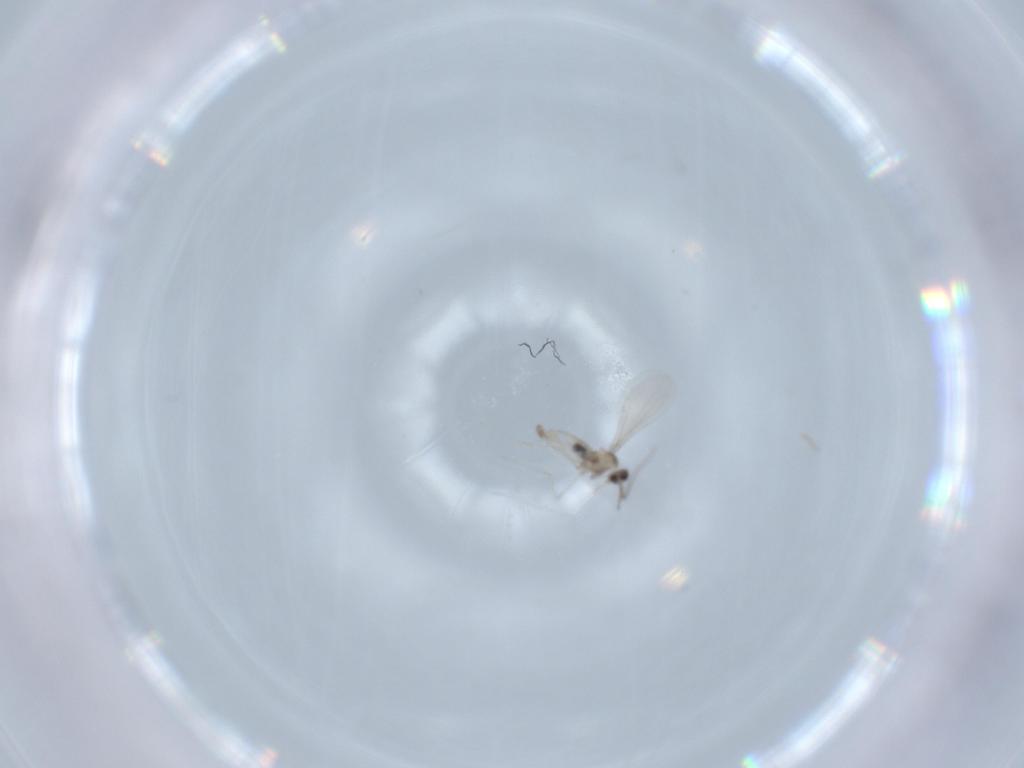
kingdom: Animalia
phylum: Arthropoda
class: Insecta
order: Diptera
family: Cecidomyiidae
